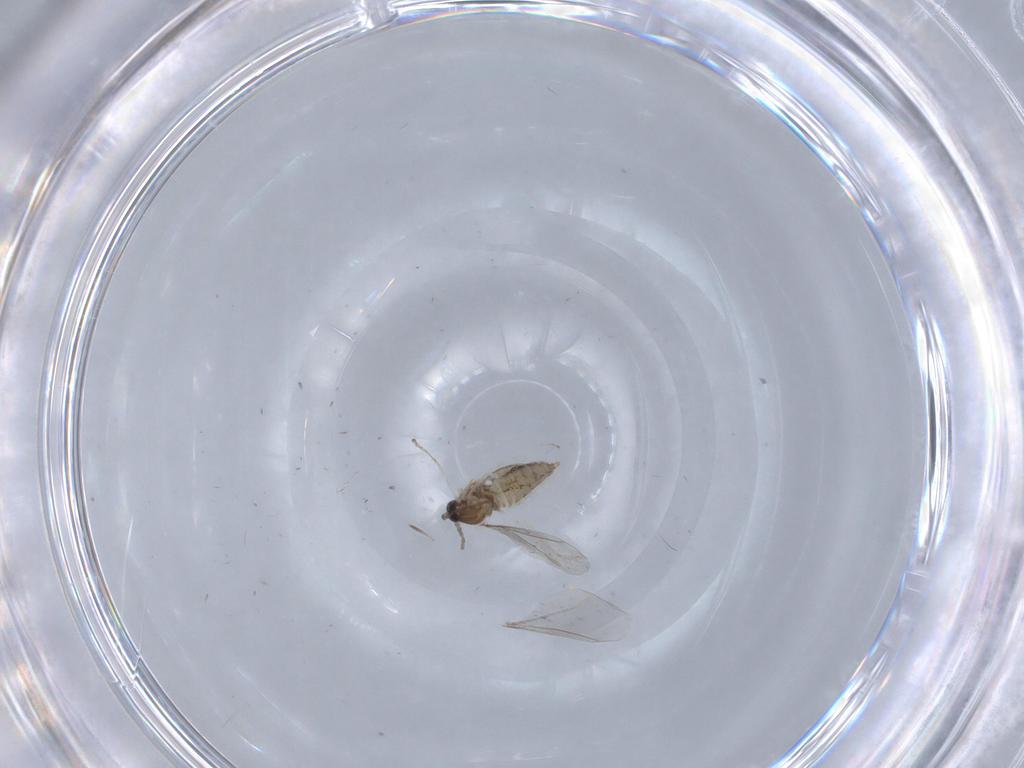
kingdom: Animalia
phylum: Arthropoda
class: Insecta
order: Diptera
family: Cecidomyiidae
